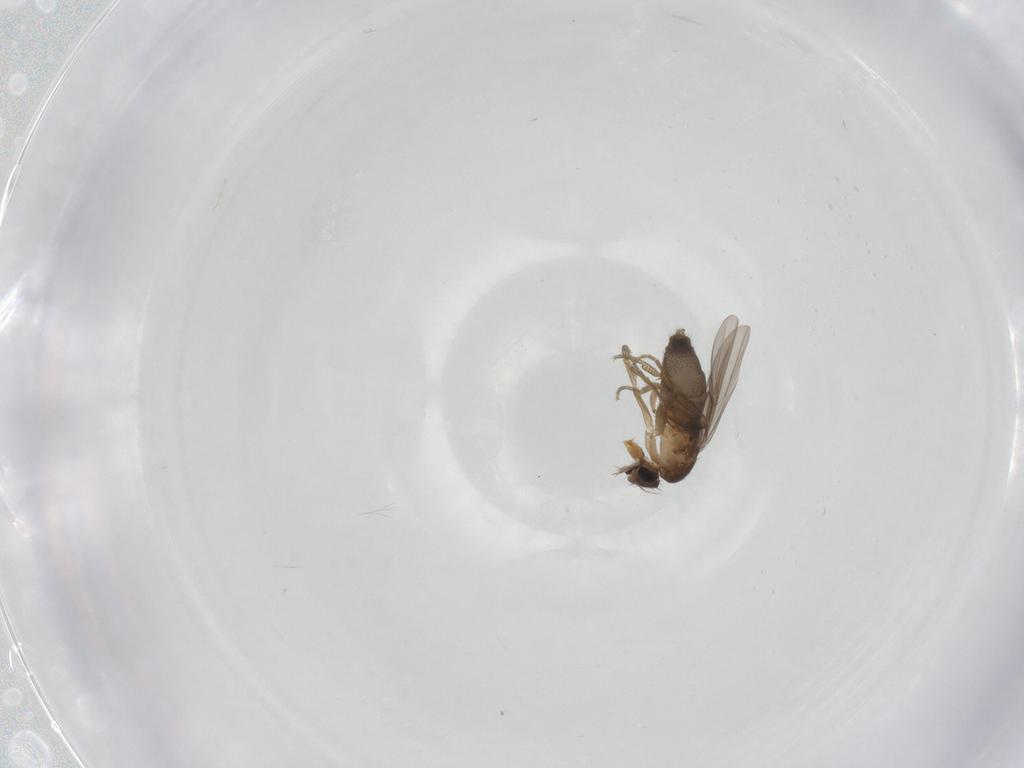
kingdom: Animalia
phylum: Arthropoda
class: Insecta
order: Diptera
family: Phoridae
